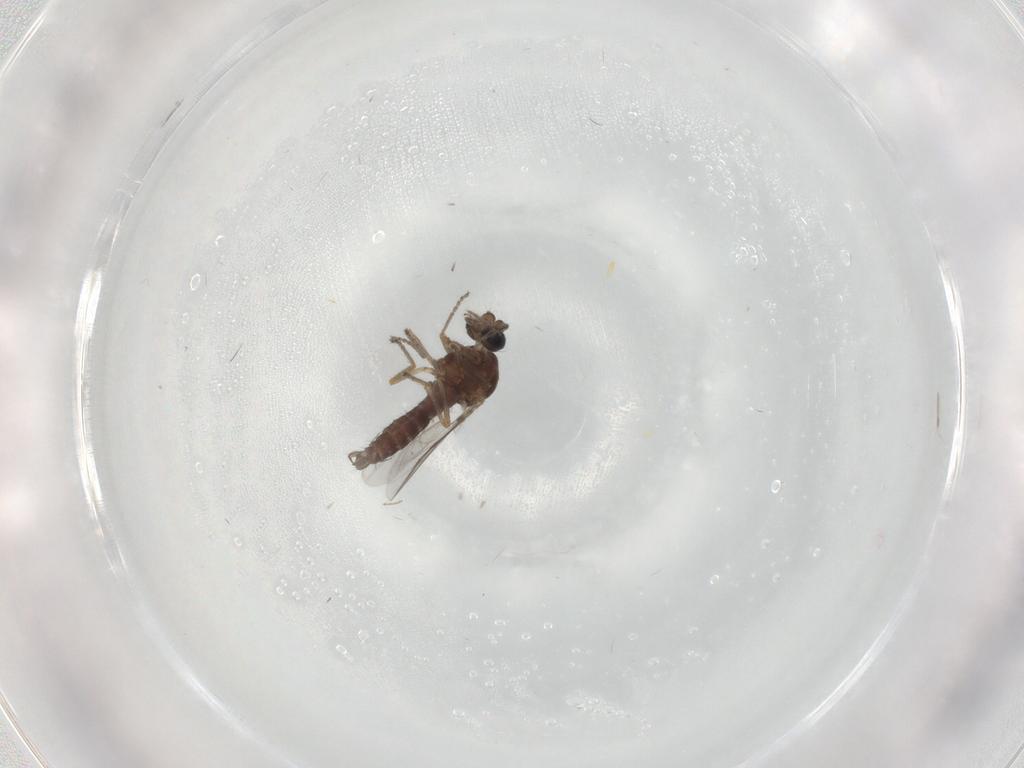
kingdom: Animalia
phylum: Arthropoda
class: Insecta
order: Diptera
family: Ceratopogonidae
